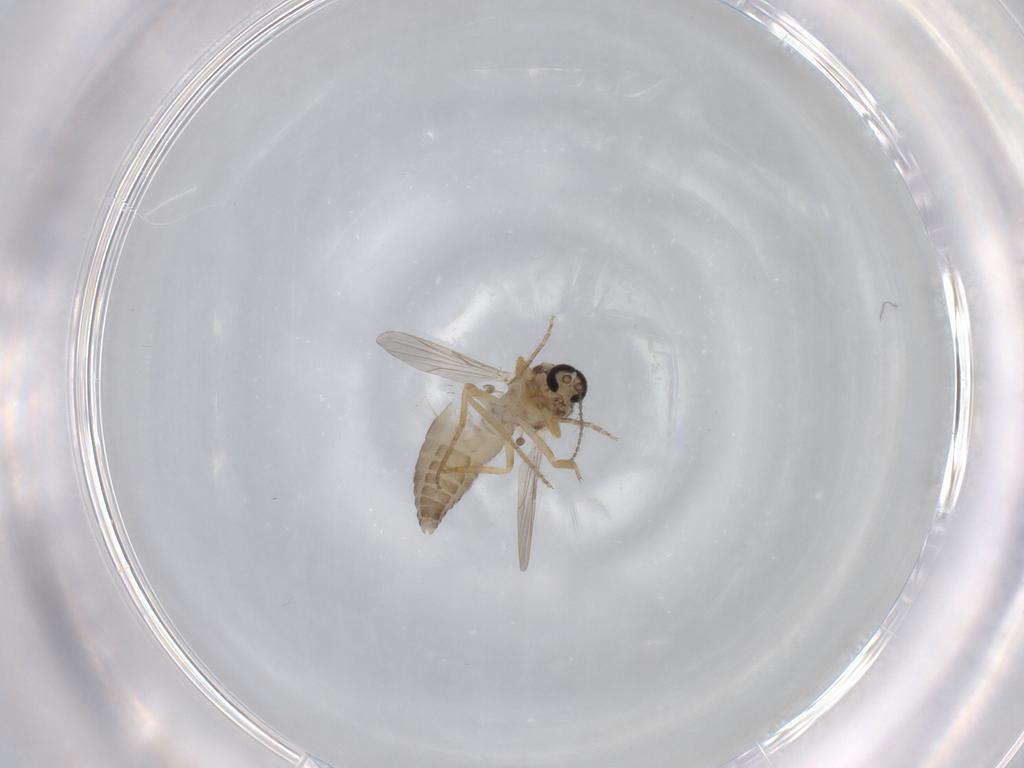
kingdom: Animalia
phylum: Arthropoda
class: Insecta
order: Diptera
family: Ceratopogonidae
